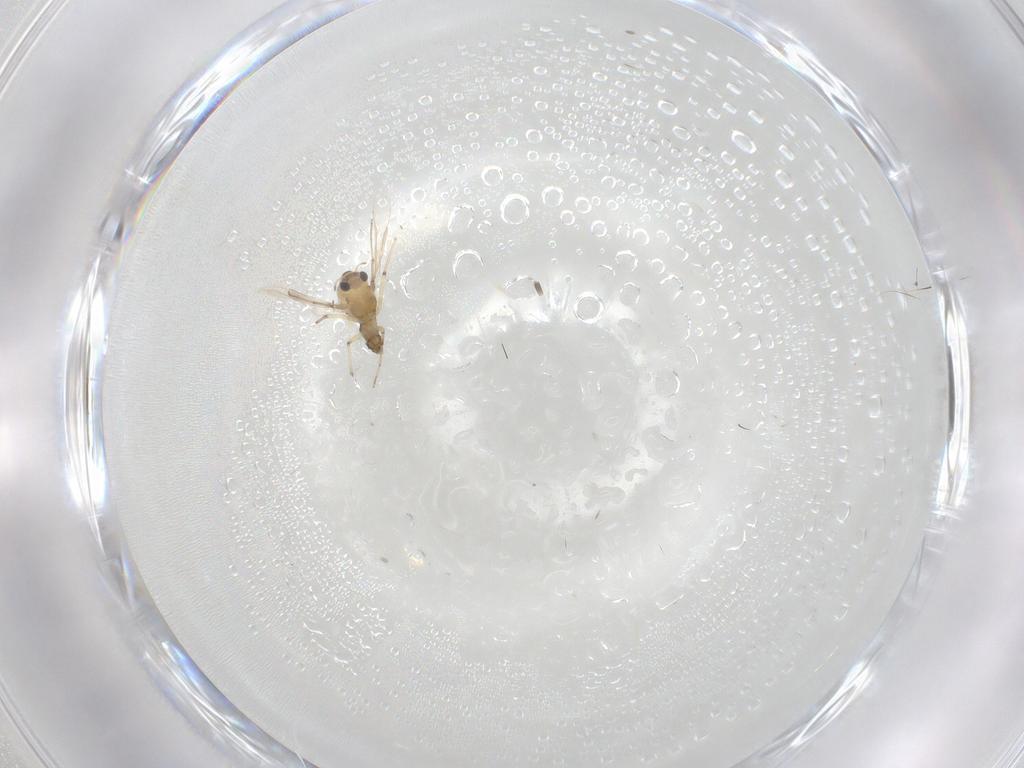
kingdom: Animalia
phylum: Arthropoda
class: Insecta
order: Diptera
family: Chironomidae
